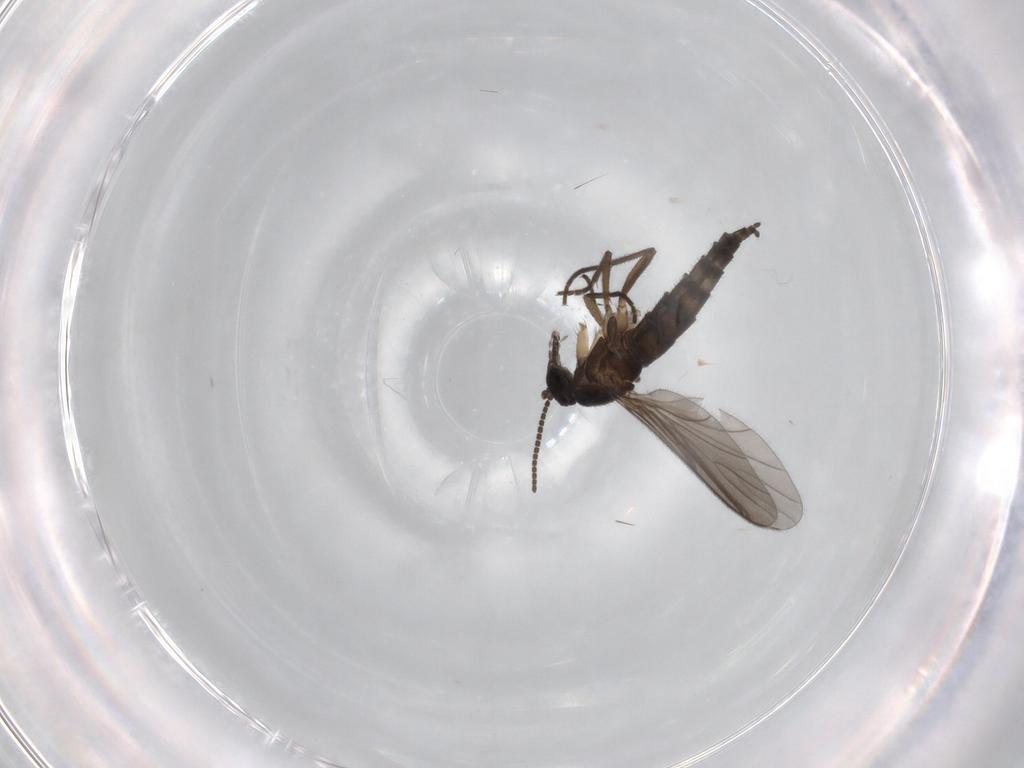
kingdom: Animalia
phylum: Arthropoda
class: Insecta
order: Diptera
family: Sciaridae
